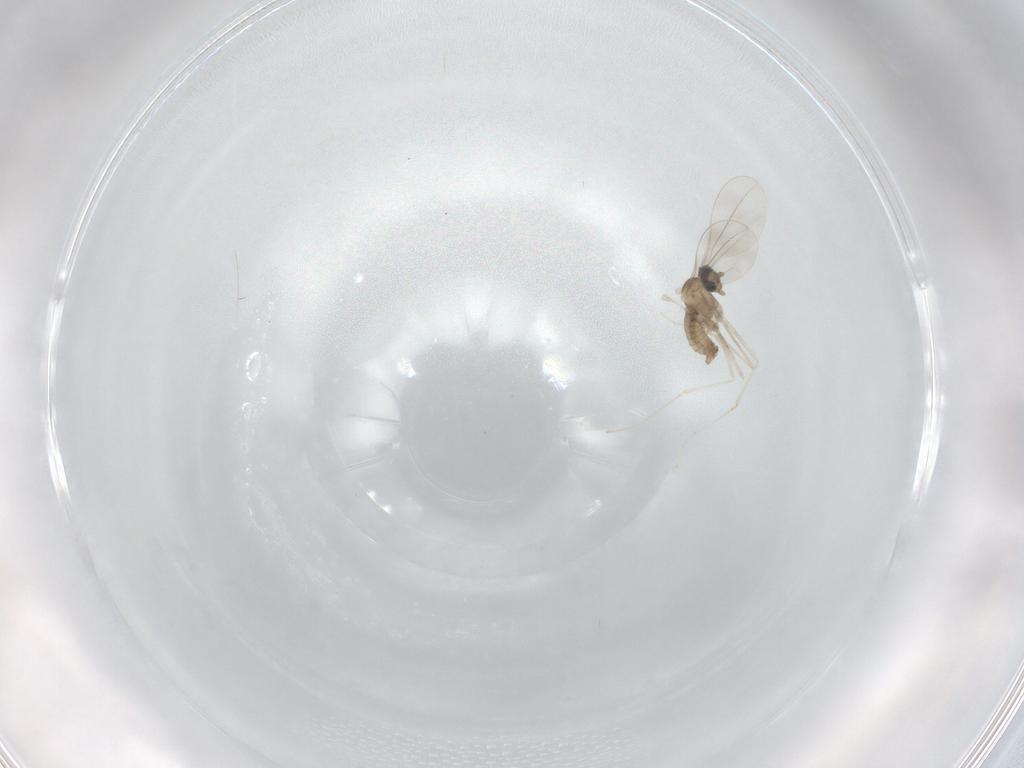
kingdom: Animalia
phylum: Arthropoda
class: Insecta
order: Diptera
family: Cecidomyiidae
